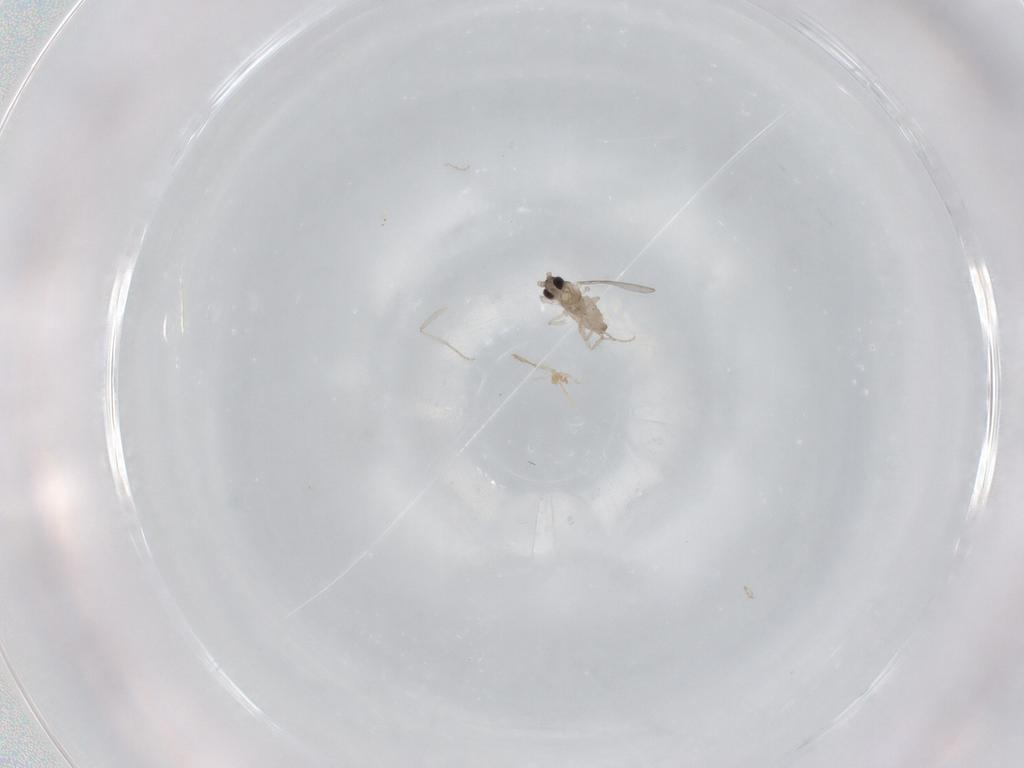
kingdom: Animalia
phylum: Arthropoda
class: Insecta
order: Diptera
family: Cecidomyiidae
